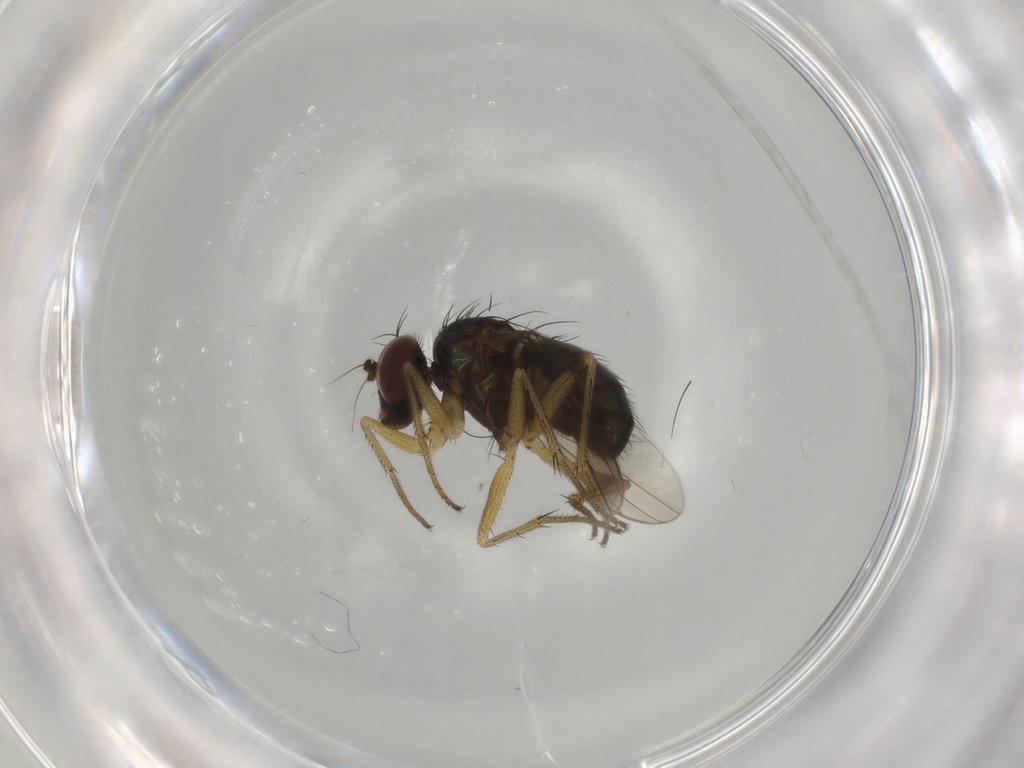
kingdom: Animalia
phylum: Arthropoda
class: Insecta
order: Diptera
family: Dolichopodidae
